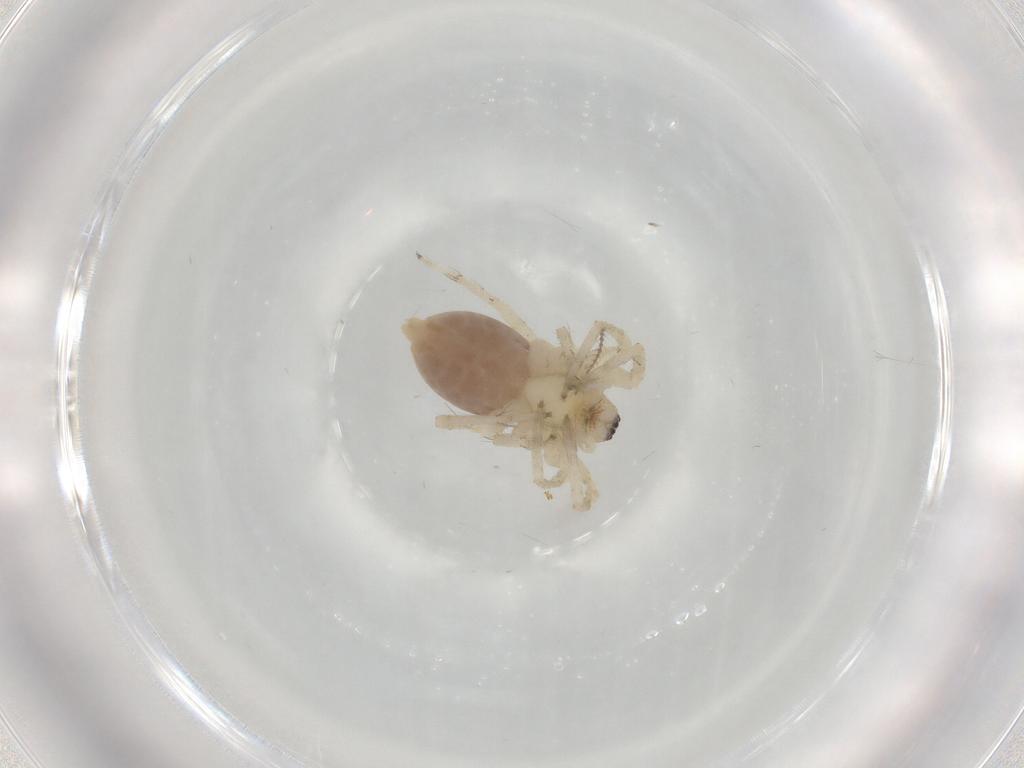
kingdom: Animalia
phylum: Arthropoda
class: Arachnida
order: Araneae
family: Anyphaenidae
